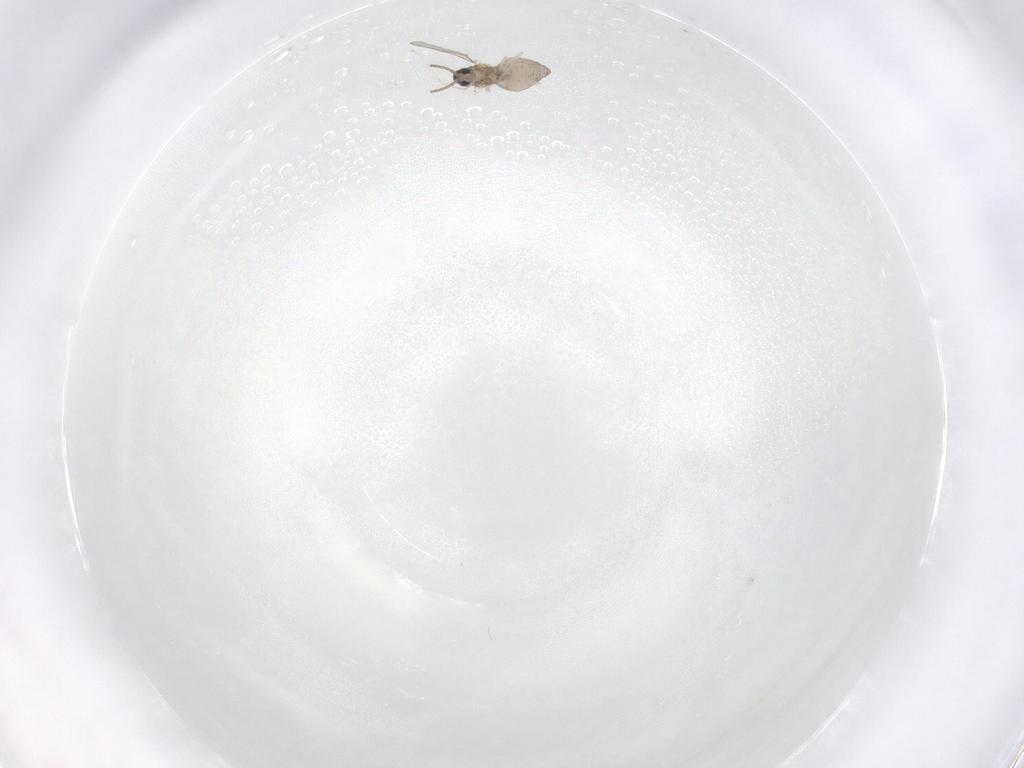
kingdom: Animalia
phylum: Arthropoda
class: Insecta
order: Diptera
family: Cecidomyiidae
